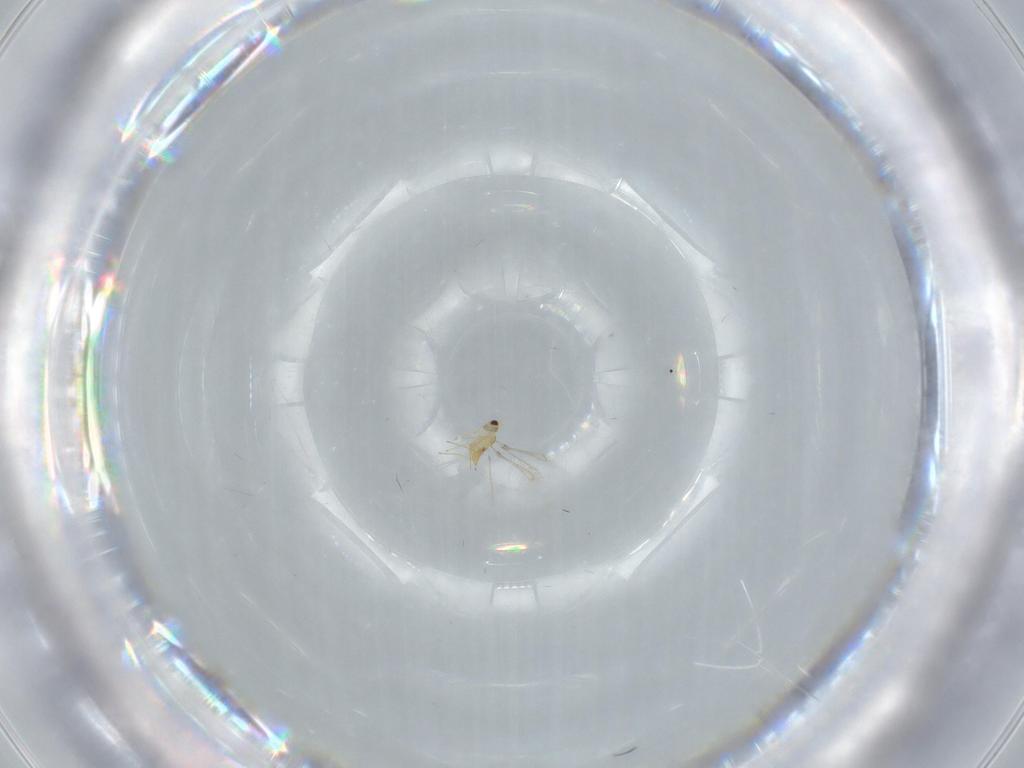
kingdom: Animalia
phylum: Arthropoda
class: Insecta
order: Hymenoptera
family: Mymaridae
